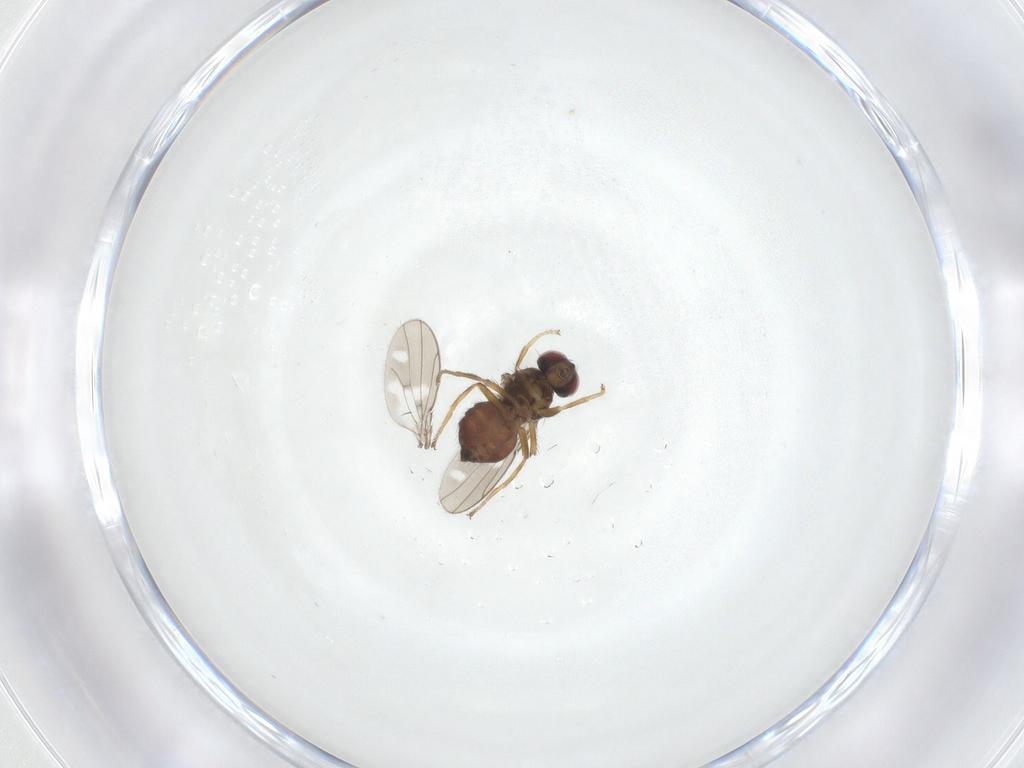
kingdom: Animalia
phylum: Arthropoda
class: Insecta
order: Diptera
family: Ephydridae
